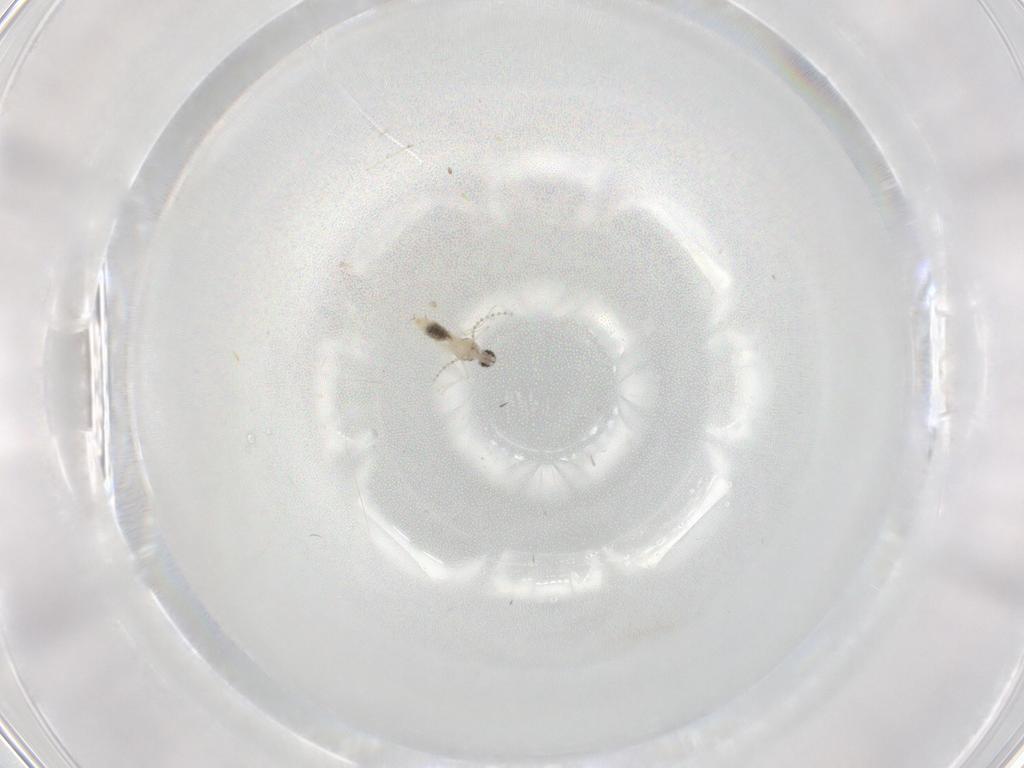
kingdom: Animalia
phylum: Arthropoda
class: Insecta
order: Diptera
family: Cecidomyiidae
